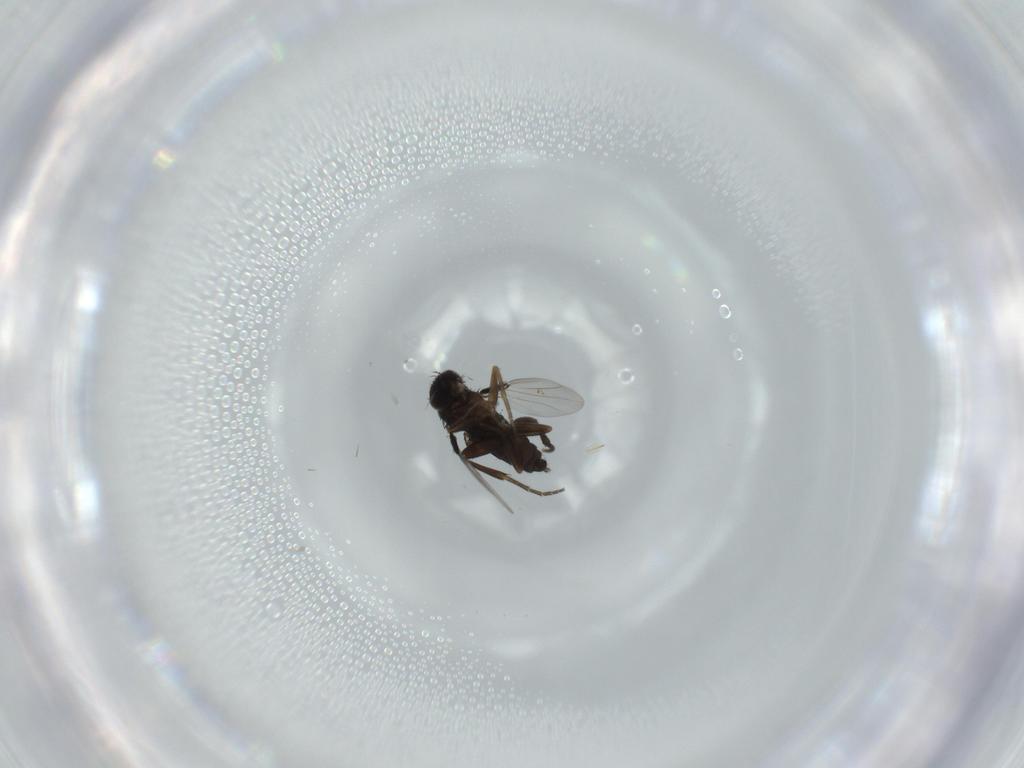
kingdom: Animalia
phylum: Arthropoda
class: Insecta
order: Diptera
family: Phoridae
